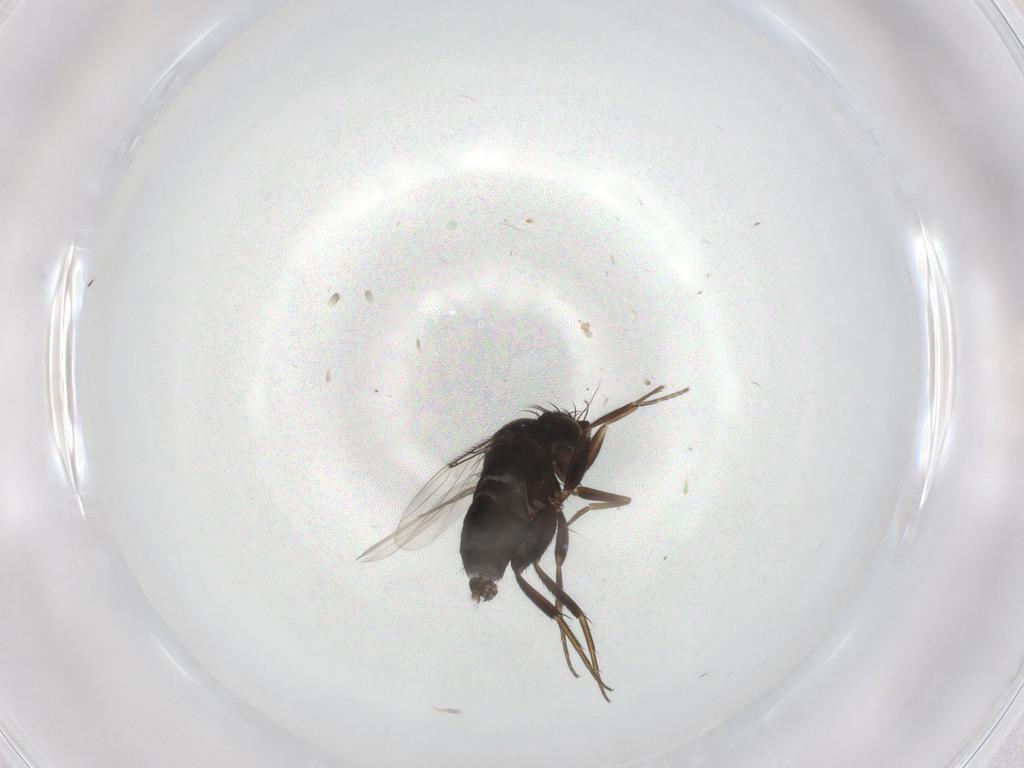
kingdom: Animalia
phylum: Arthropoda
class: Insecta
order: Diptera
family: Phoridae
